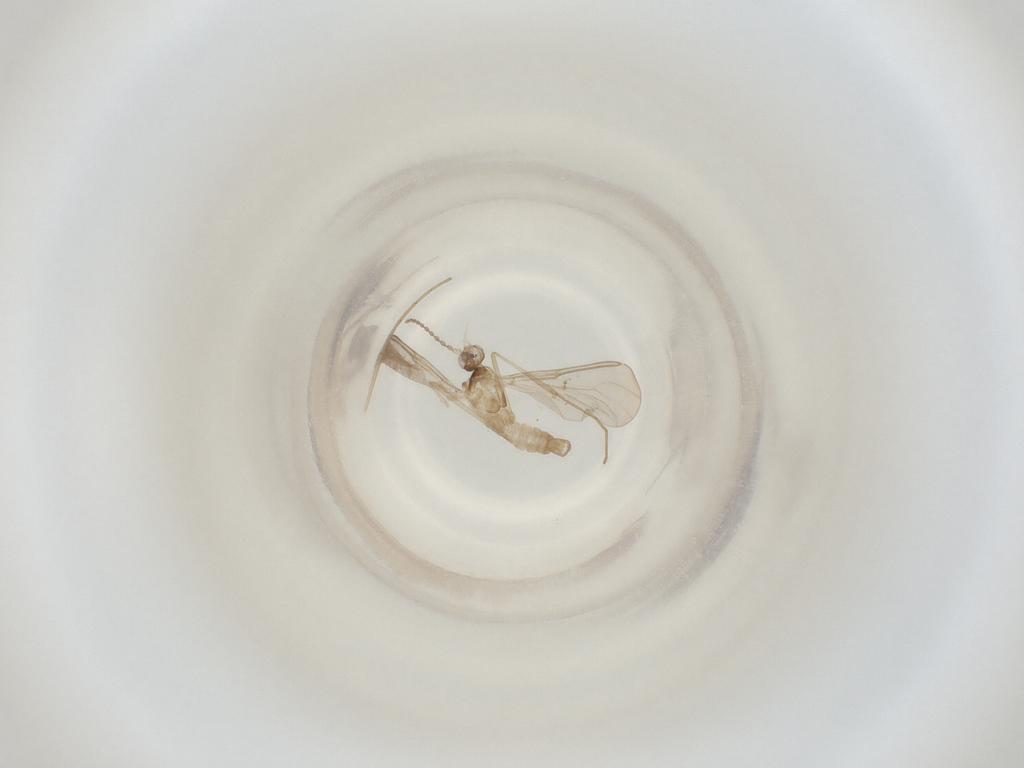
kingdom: Animalia
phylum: Arthropoda
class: Insecta
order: Diptera
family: Cecidomyiidae
